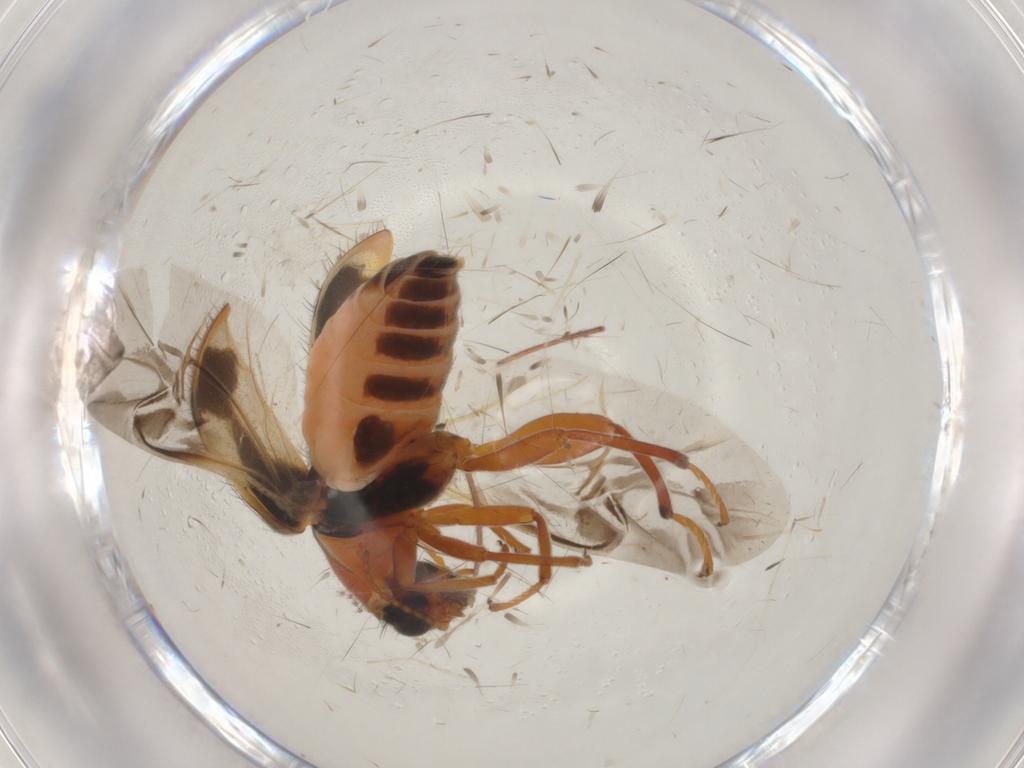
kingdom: Animalia
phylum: Arthropoda
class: Insecta
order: Coleoptera
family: Melyridae
